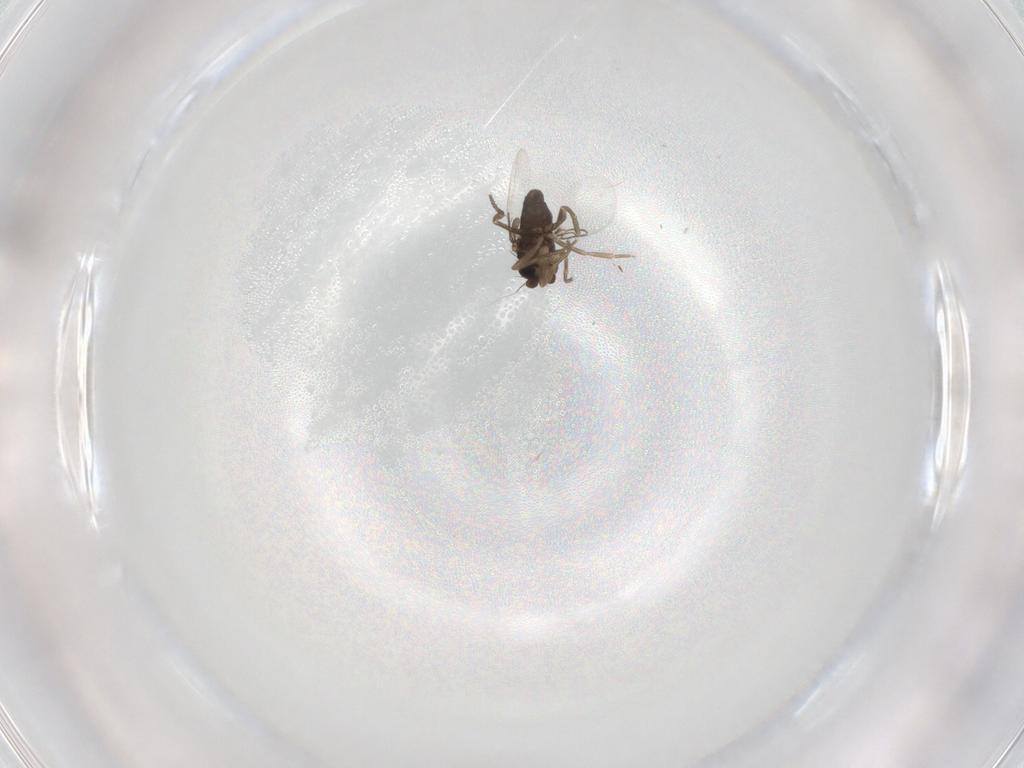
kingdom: Animalia
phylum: Arthropoda
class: Insecta
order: Diptera
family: Phoridae
